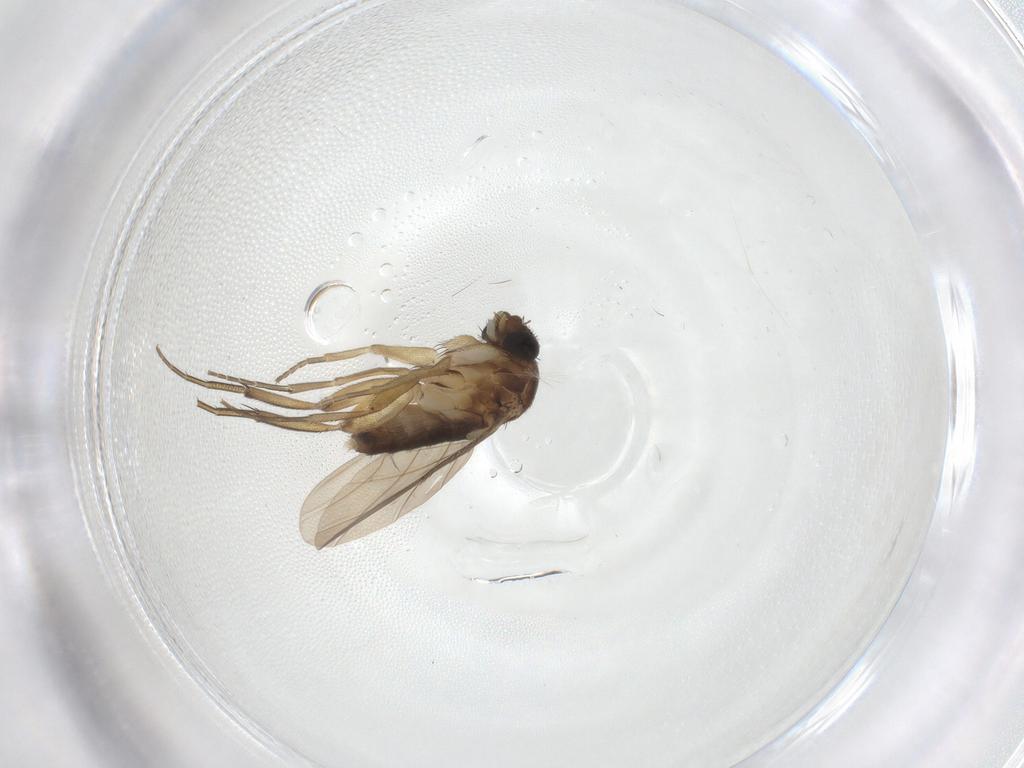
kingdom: Animalia
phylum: Arthropoda
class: Insecta
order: Diptera
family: Phoridae
